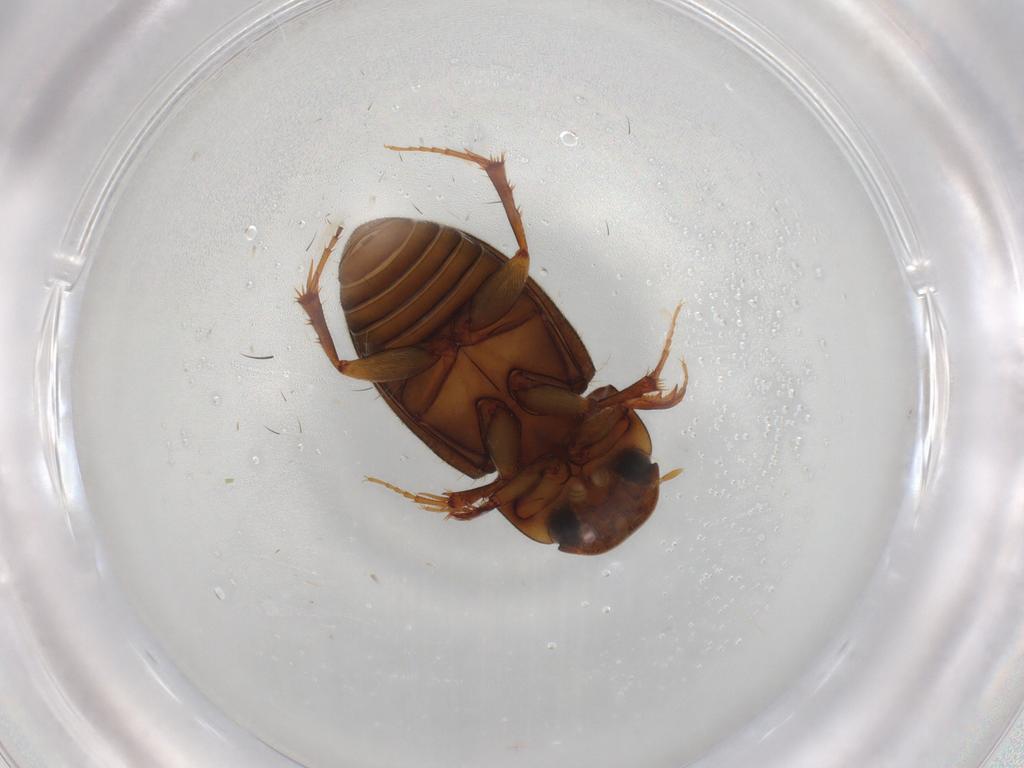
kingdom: Animalia
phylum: Arthropoda
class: Insecta
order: Coleoptera
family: Scarabaeidae
